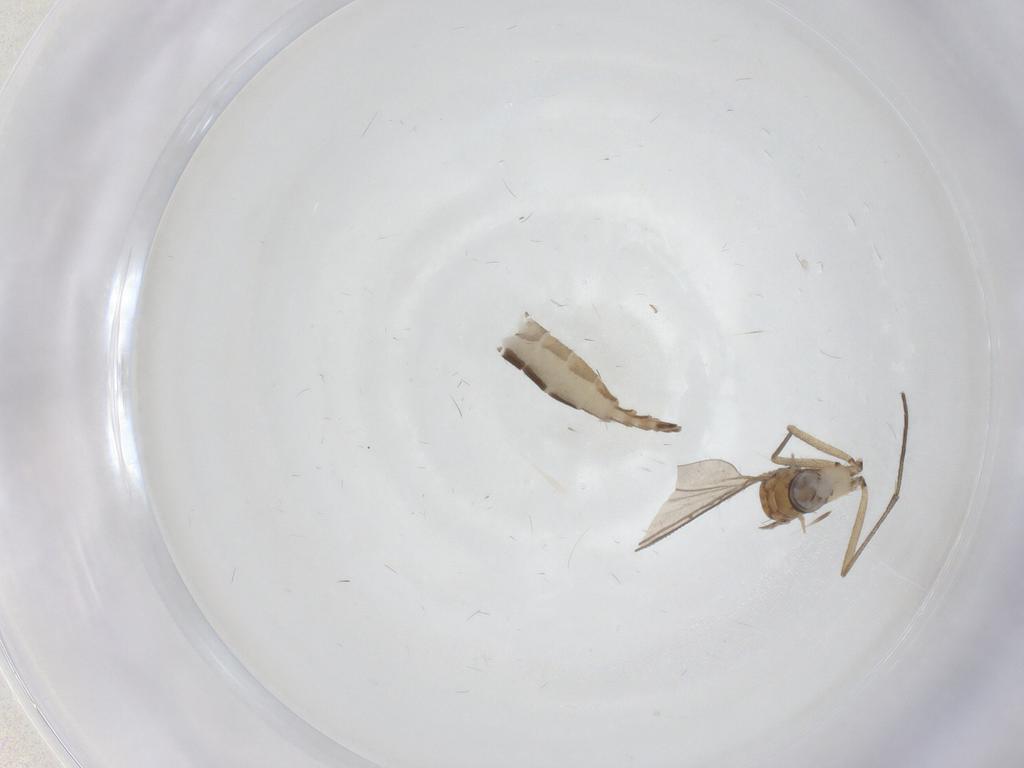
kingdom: Animalia
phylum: Arthropoda
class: Insecta
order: Diptera
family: Sciaridae
